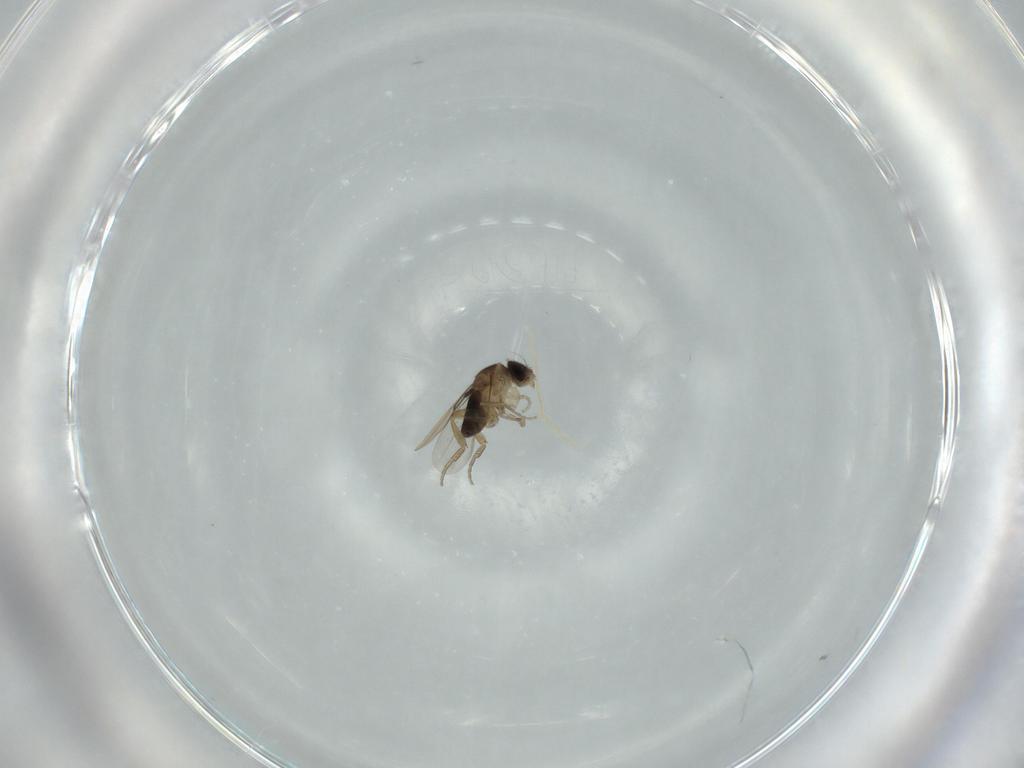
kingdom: Animalia
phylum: Arthropoda
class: Insecta
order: Diptera
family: Phoridae
